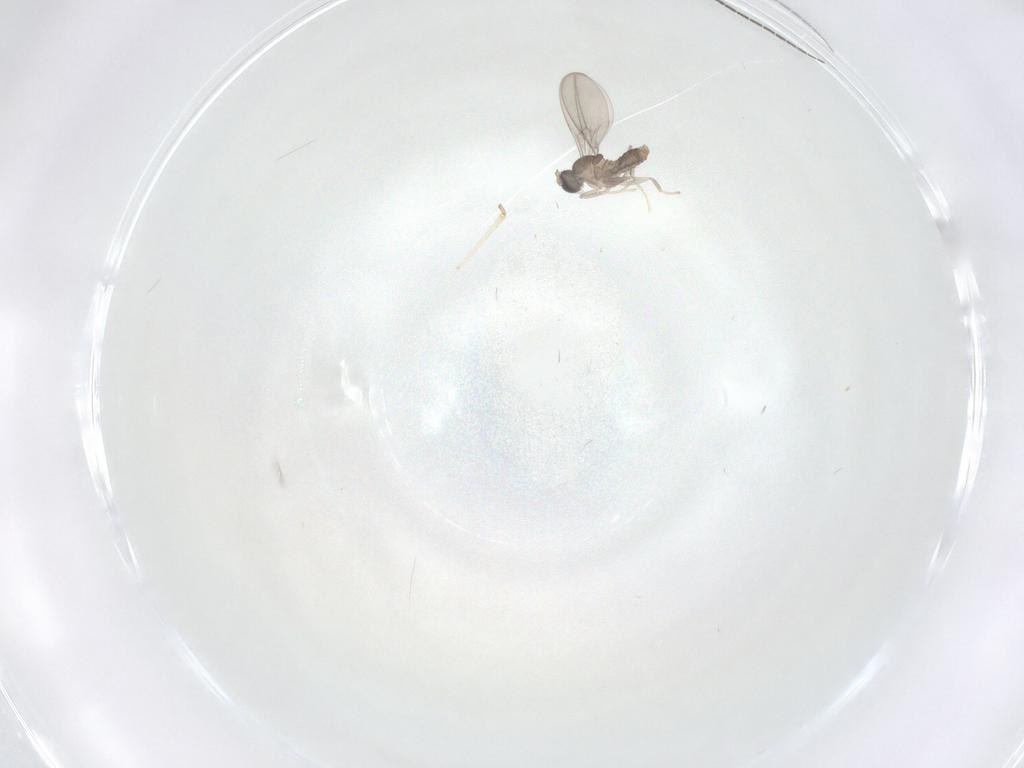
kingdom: Animalia
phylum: Arthropoda
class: Insecta
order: Diptera
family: Sciaridae
